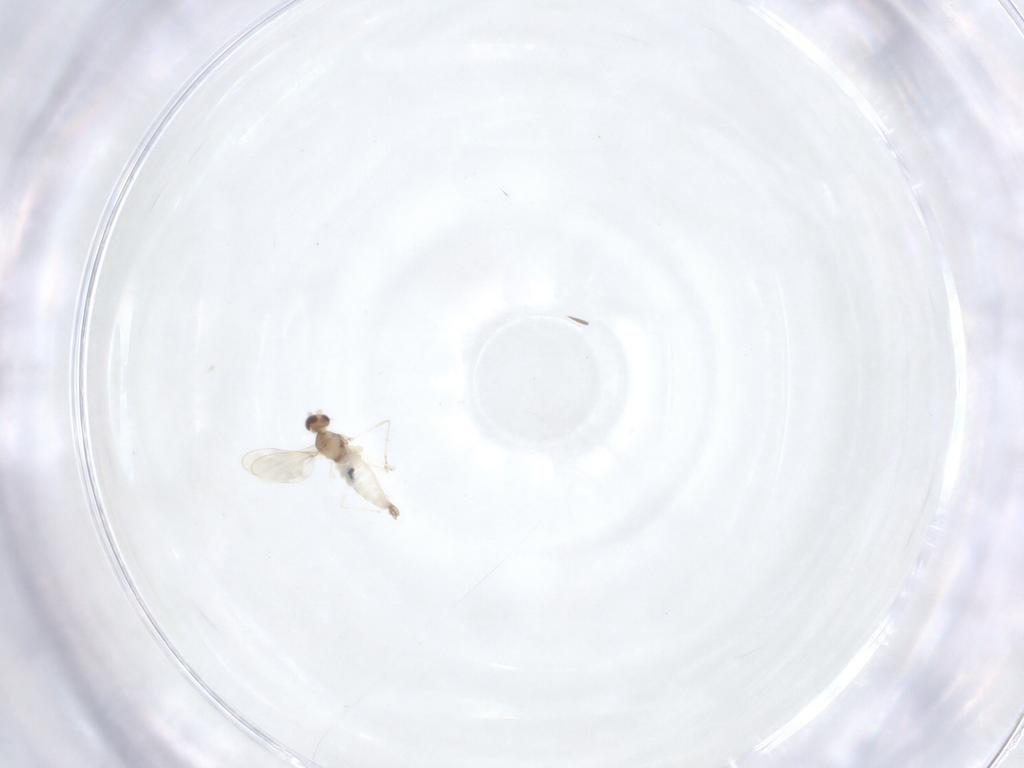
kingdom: Animalia
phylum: Arthropoda
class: Insecta
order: Diptera
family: Cecidomyiidae
